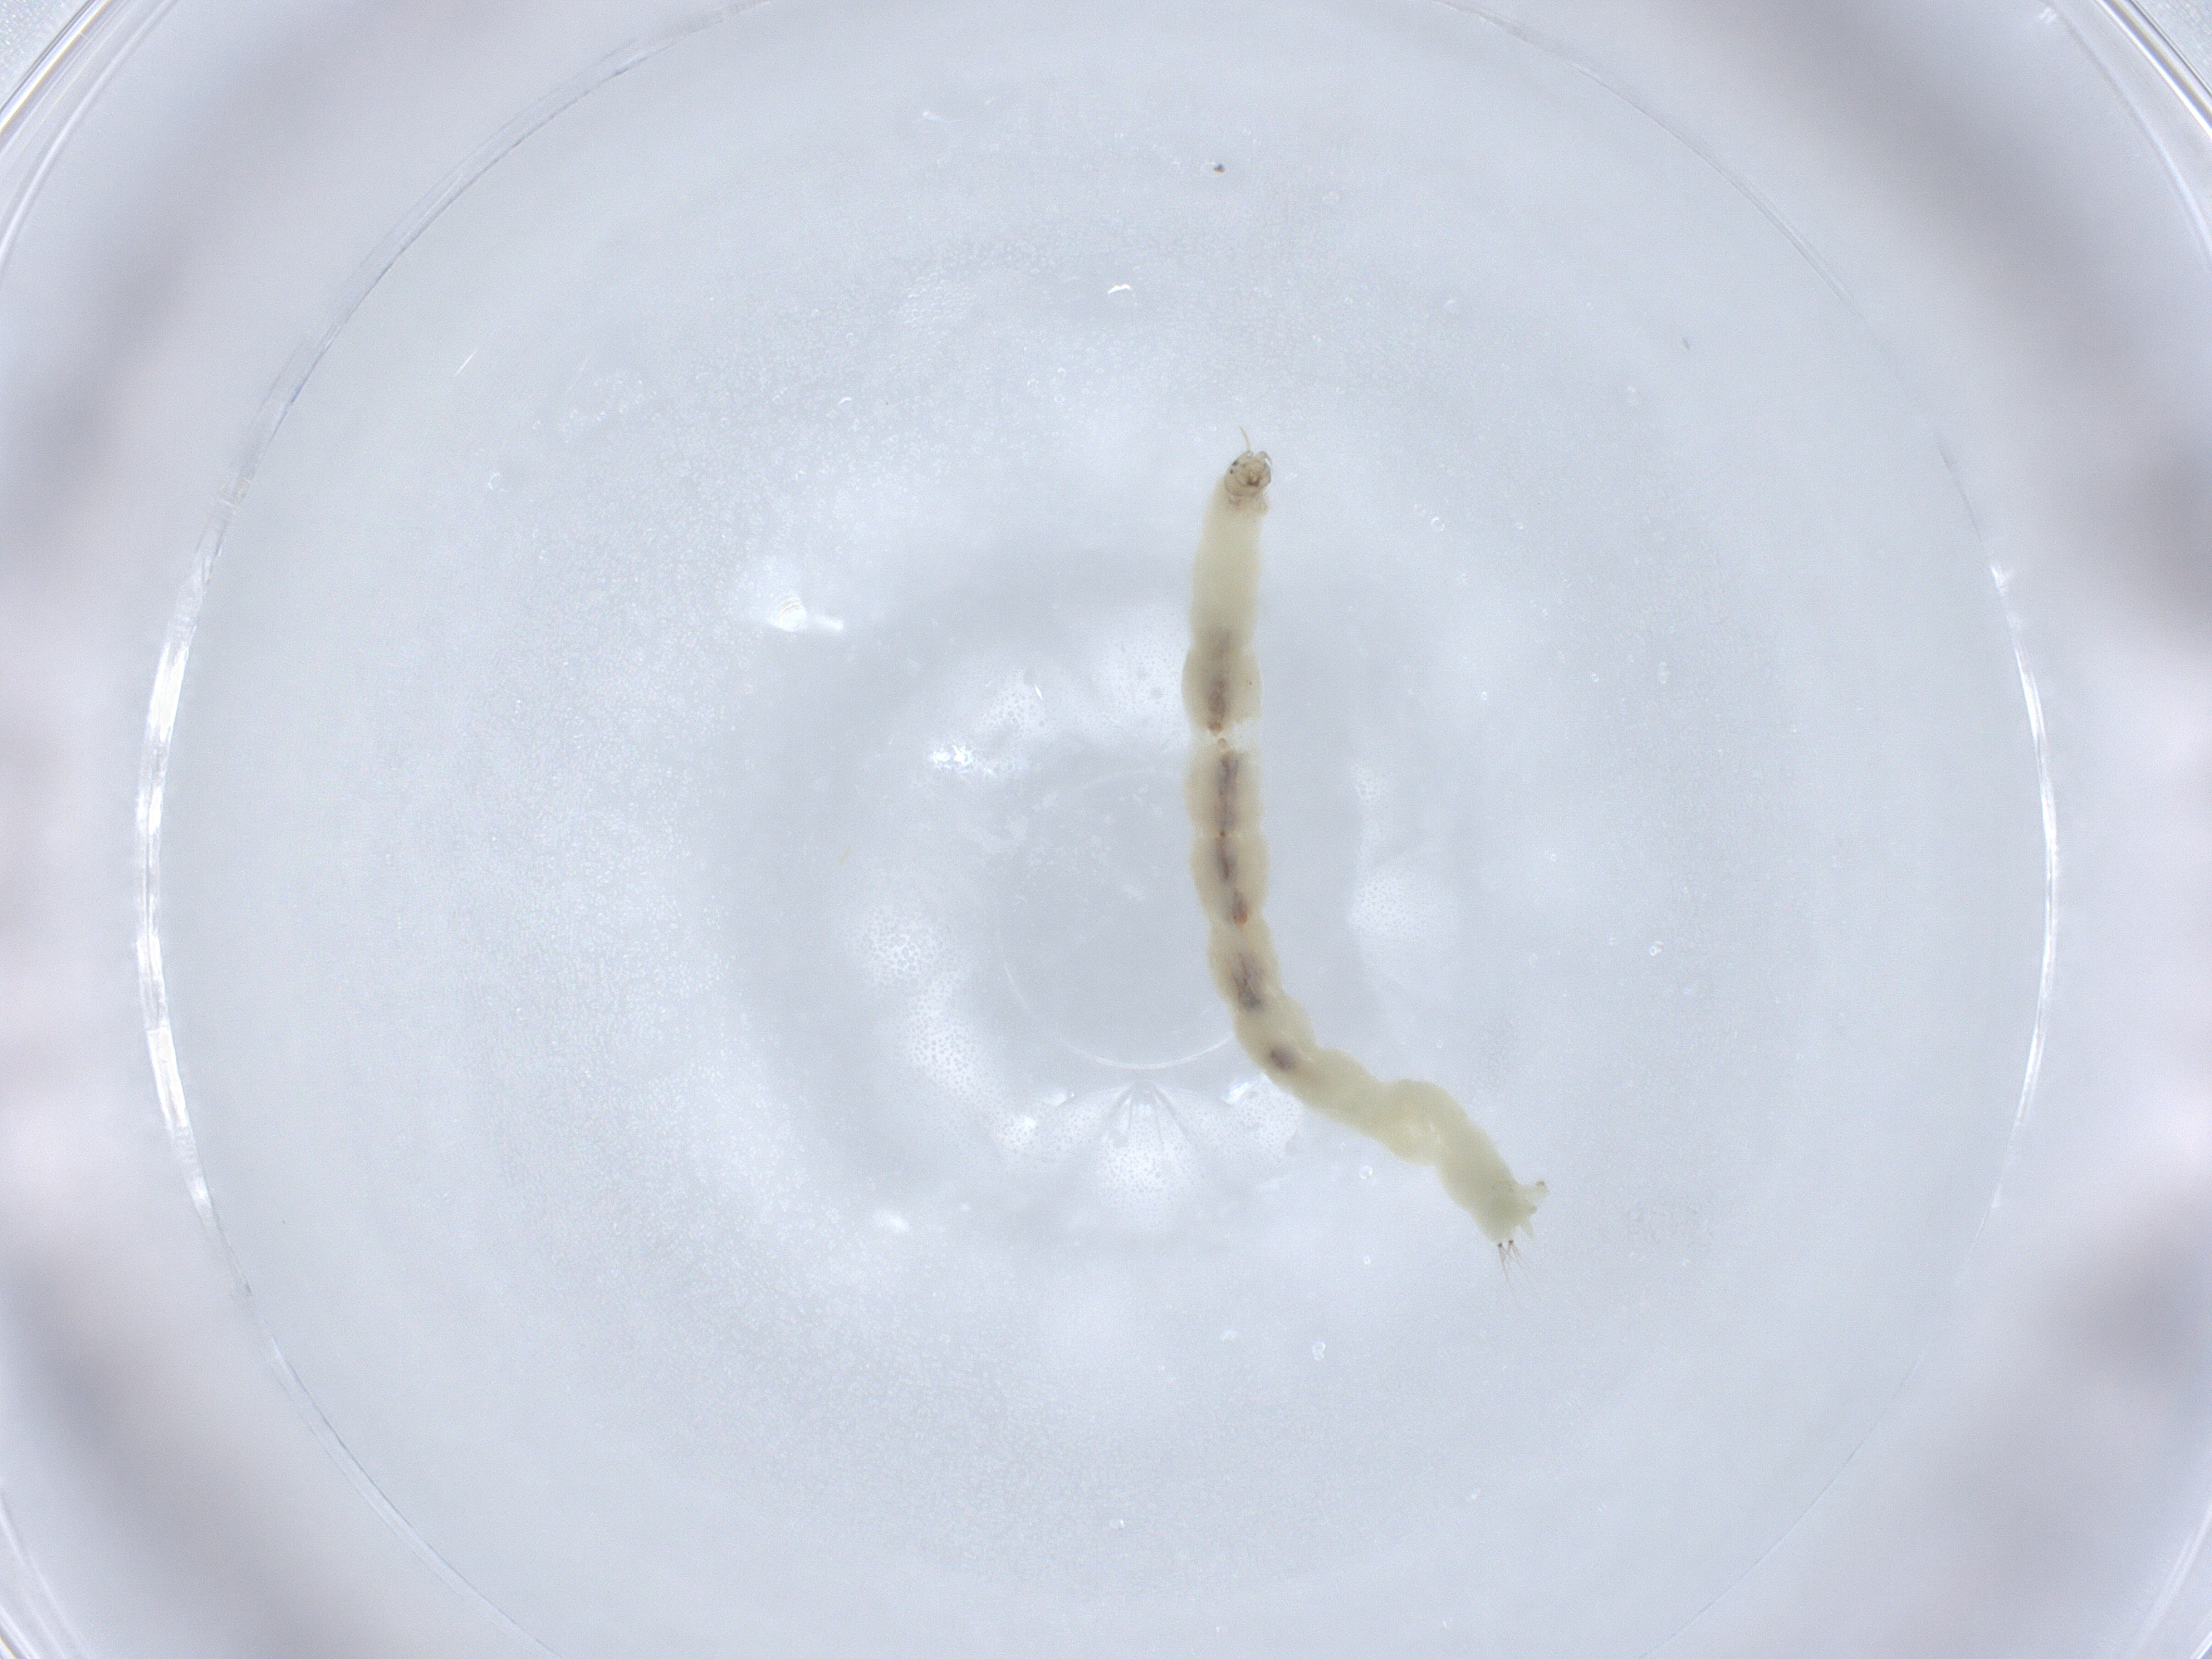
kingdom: Animalia
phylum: Arthropoda
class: Insecta
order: Diptera
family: Chironomidae
